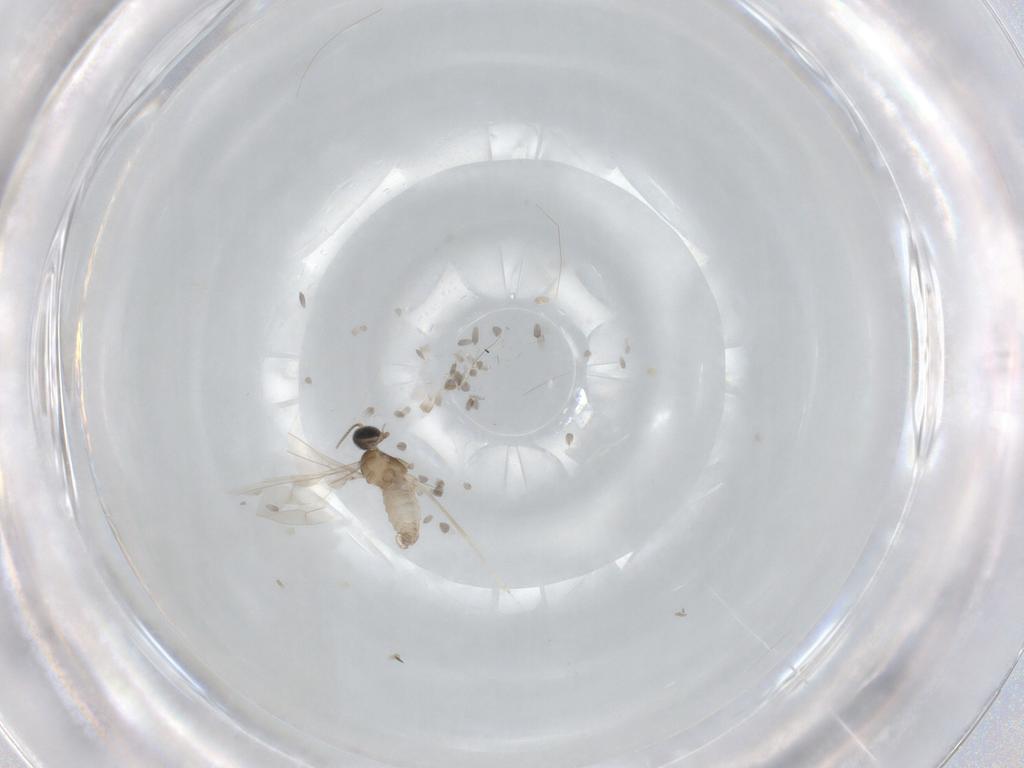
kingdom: Animalia
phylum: Arthropoda
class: Insecta
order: Diptera
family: Cecidomyiidae
